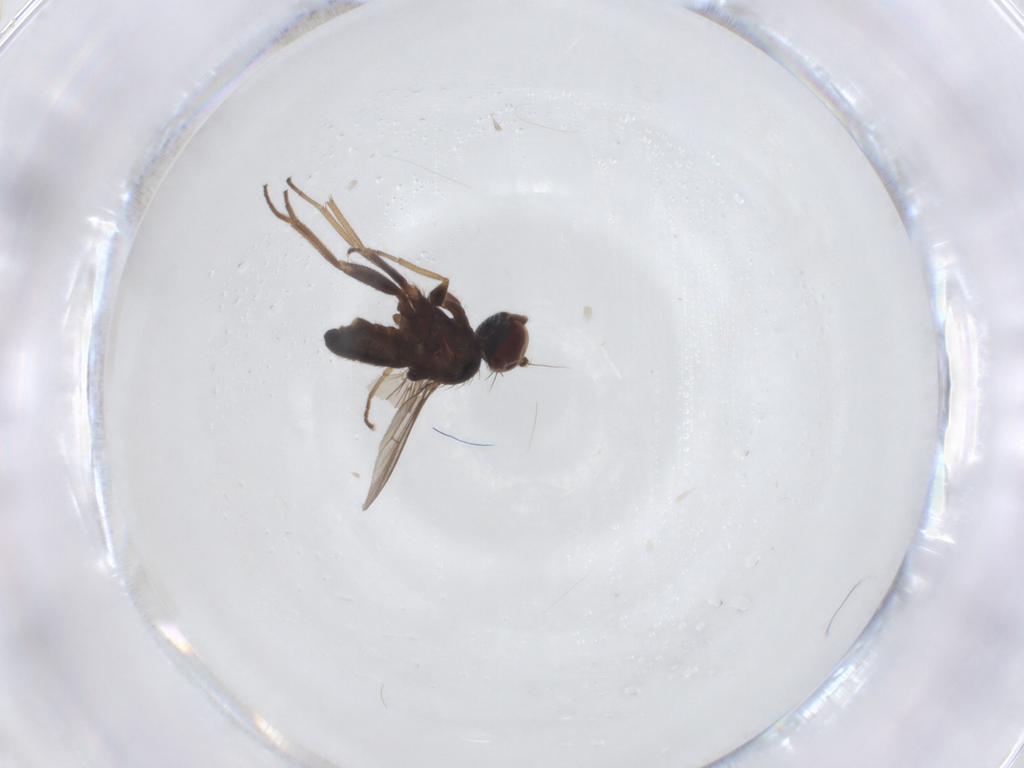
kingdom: Animalia
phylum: Arthropoda
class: Insecta
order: Diptera
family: Dolichopodidae
